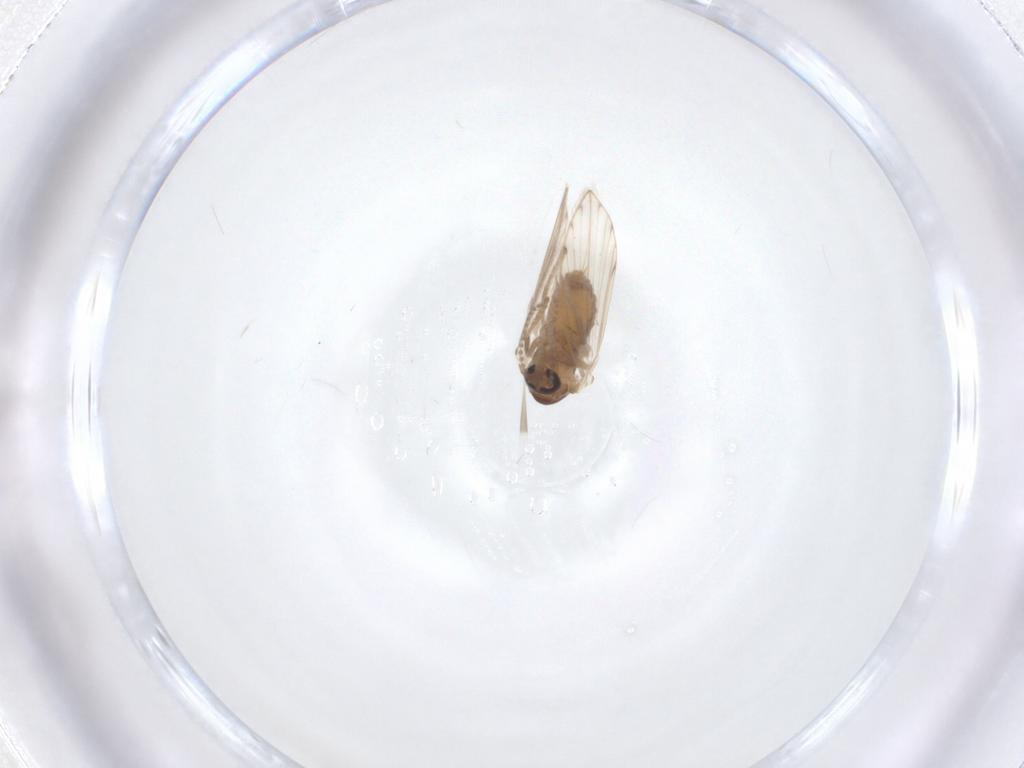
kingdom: Animalia
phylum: Arthropoda
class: Insecta
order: Diptera
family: Psychodidae
